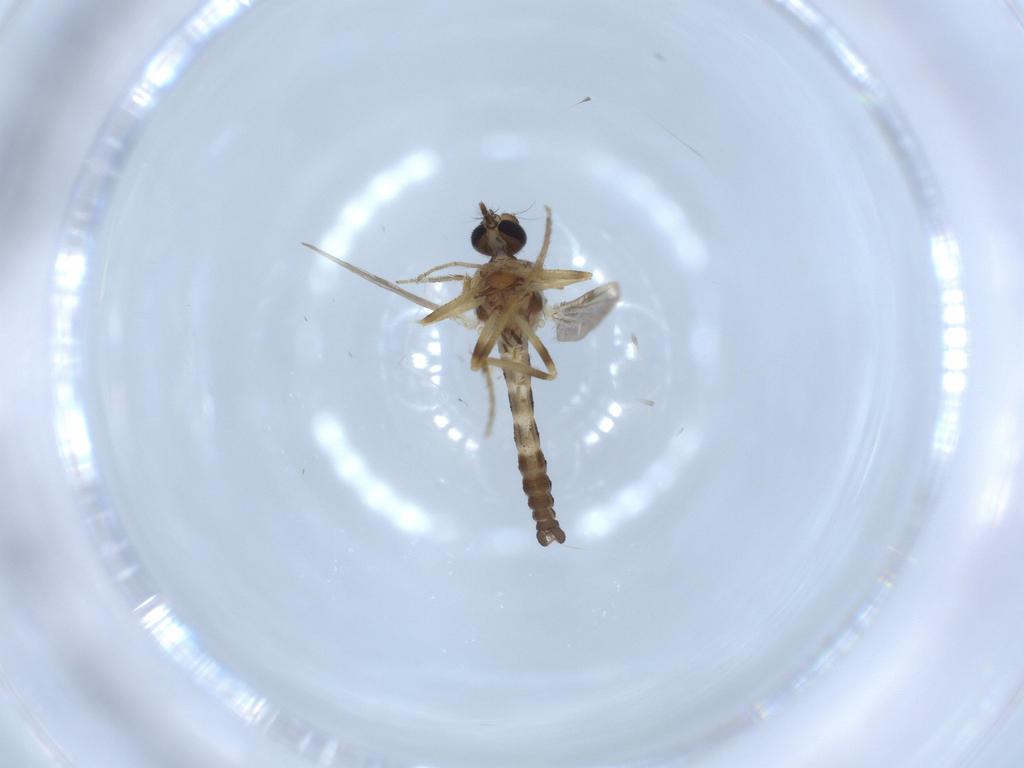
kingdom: Animalia
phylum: Arthropoda
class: Insecta
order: Diptera
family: Ceratopogonidae
